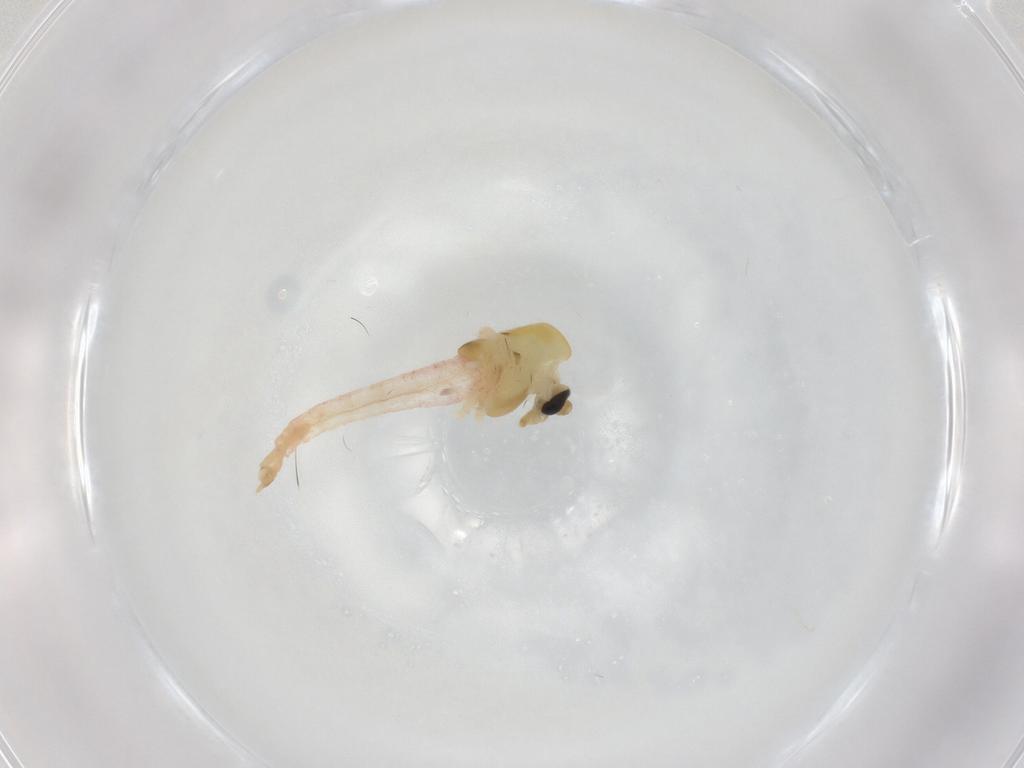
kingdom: Animalia
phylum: Arthropoda
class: Insecta
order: Diptera
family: Chironomidae
